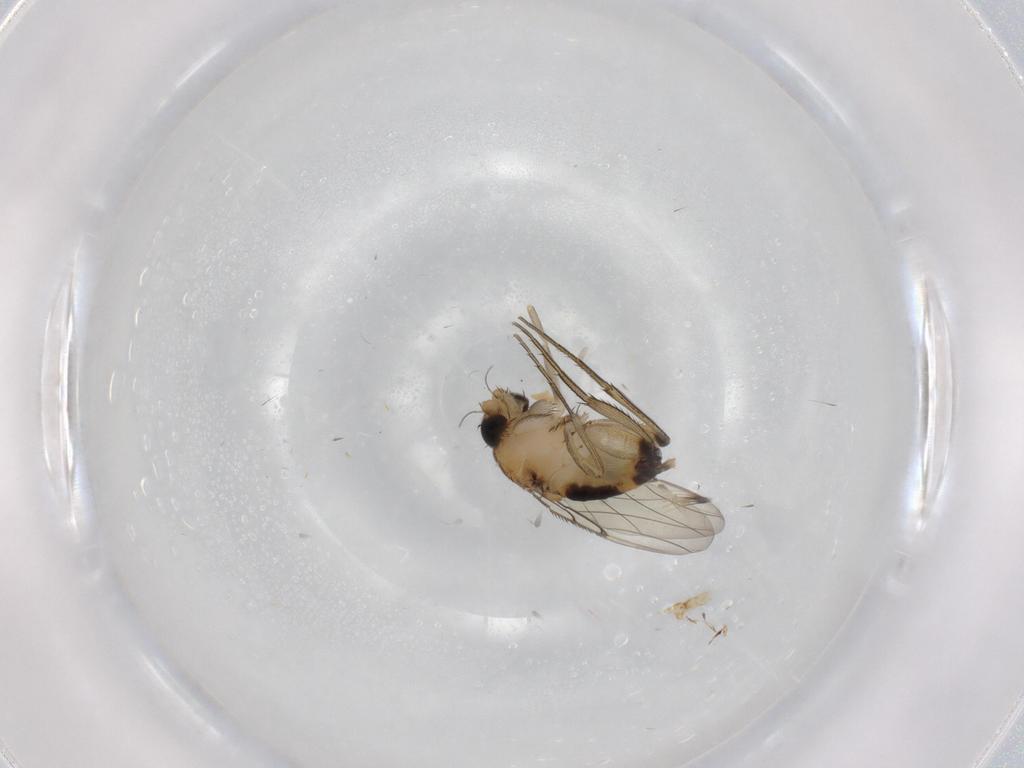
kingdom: Animalia
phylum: Arthropoda
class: Insecta
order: Diptera
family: Phoridae
